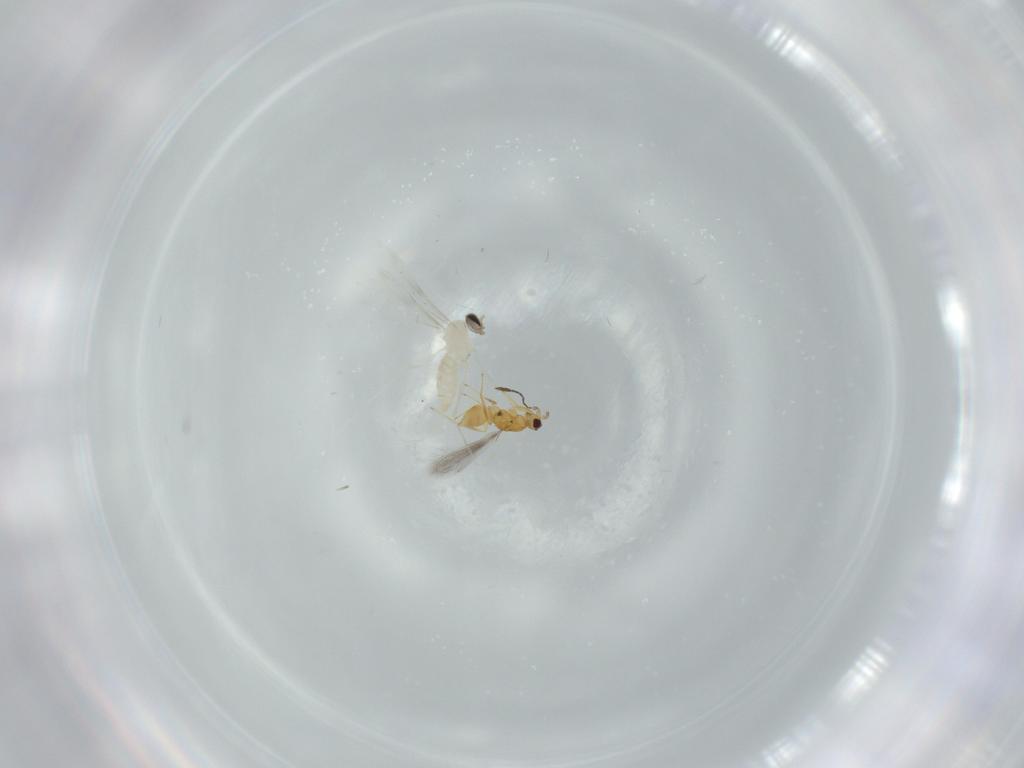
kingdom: Animalia
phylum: Arthropoda
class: Insecta
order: Diptera
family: Cecidomyiidae
